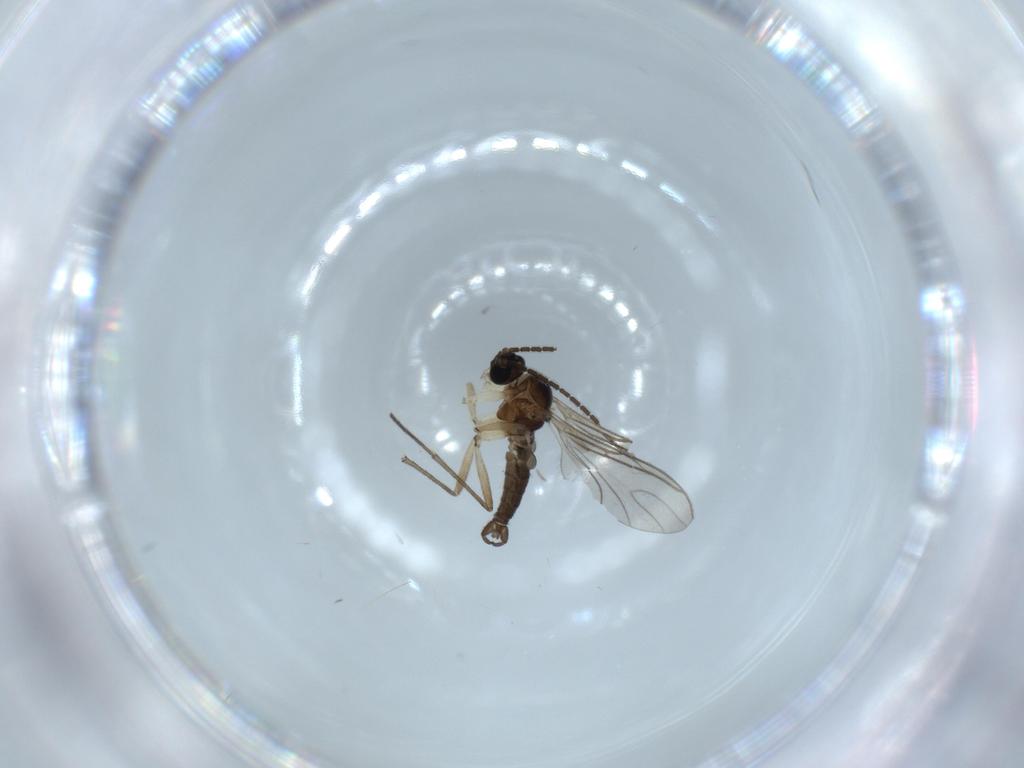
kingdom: Animalia
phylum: Arthropoda
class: Insecta
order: Diptera
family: Sciaridae
